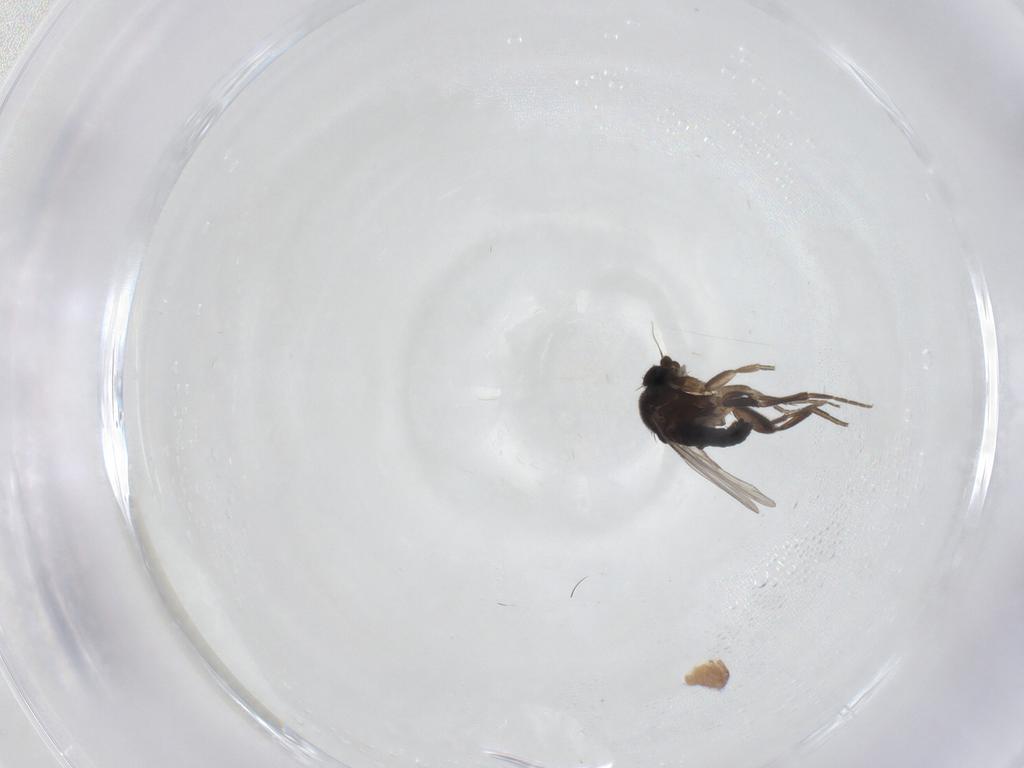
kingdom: Animalia
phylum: Arthropoda
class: Insecta
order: Diptera
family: Phoridae
